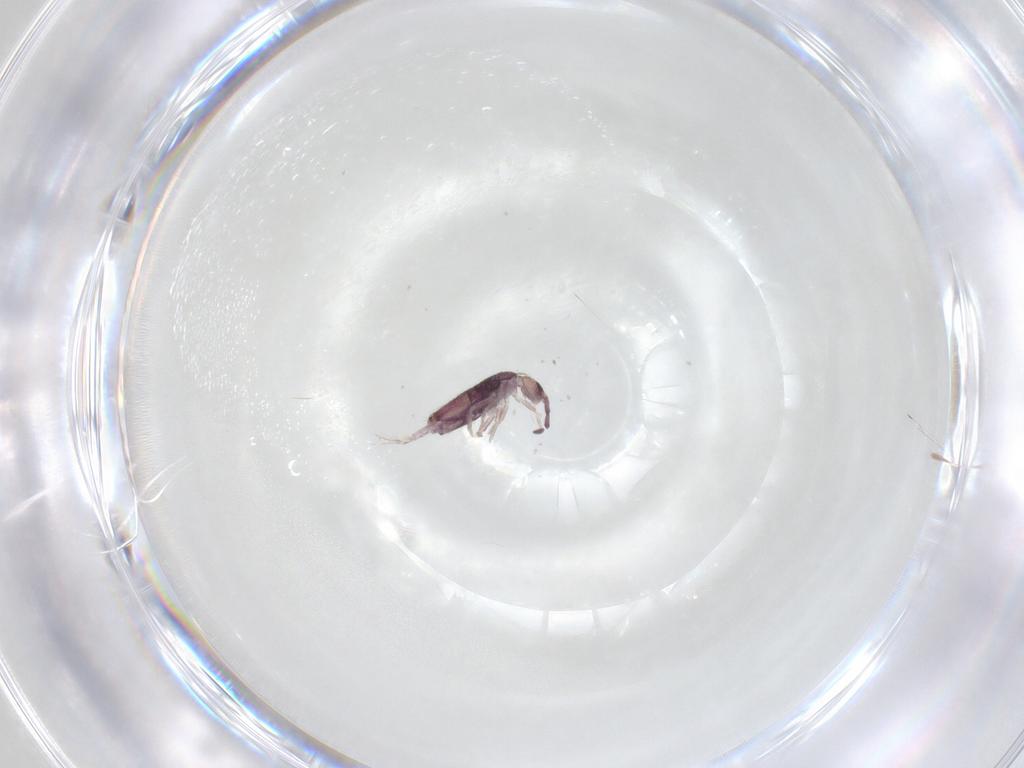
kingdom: Animalia
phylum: Arthropoda
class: Collembola
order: Entomobryomorpha
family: Entomobryidae
